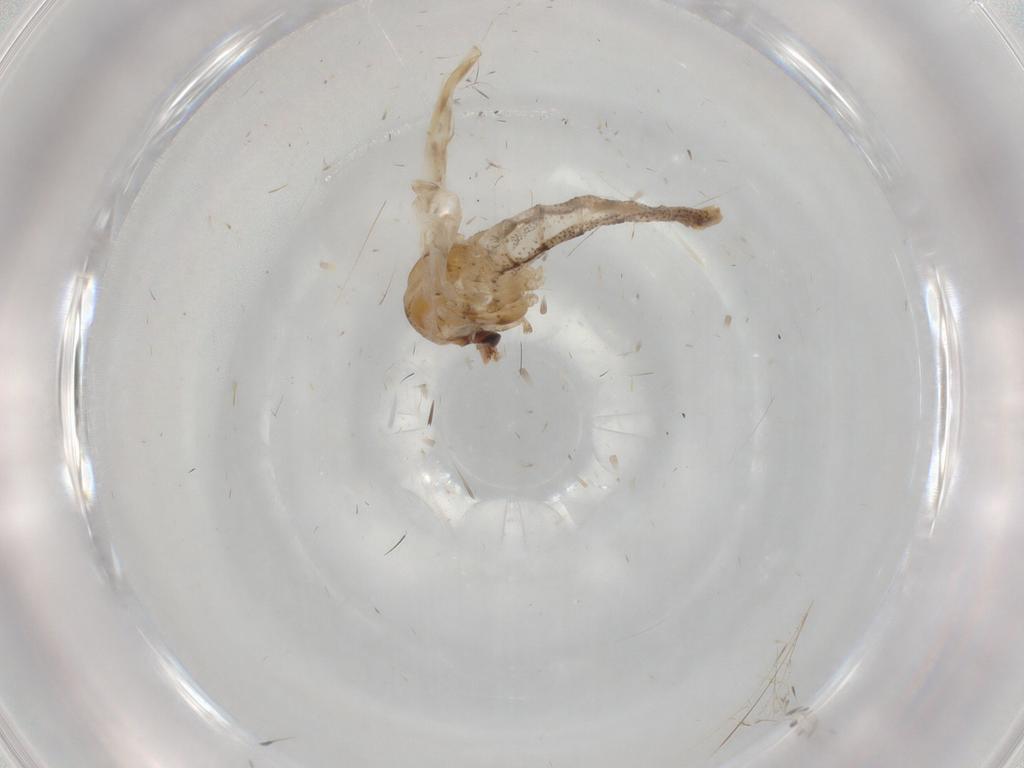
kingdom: Animalia
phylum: Arthropoda
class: Insecta
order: Diptera
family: Chaoboridae
